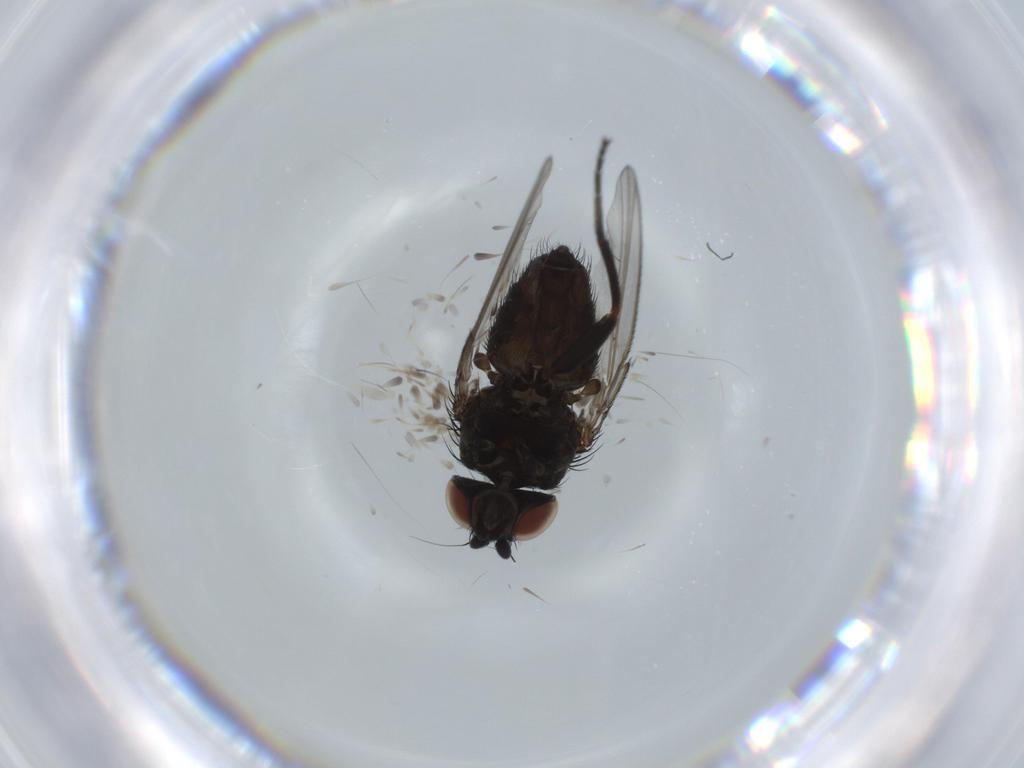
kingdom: Animalia
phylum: Arthropoda
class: Insecta
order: Diptera
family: Milichiidae
